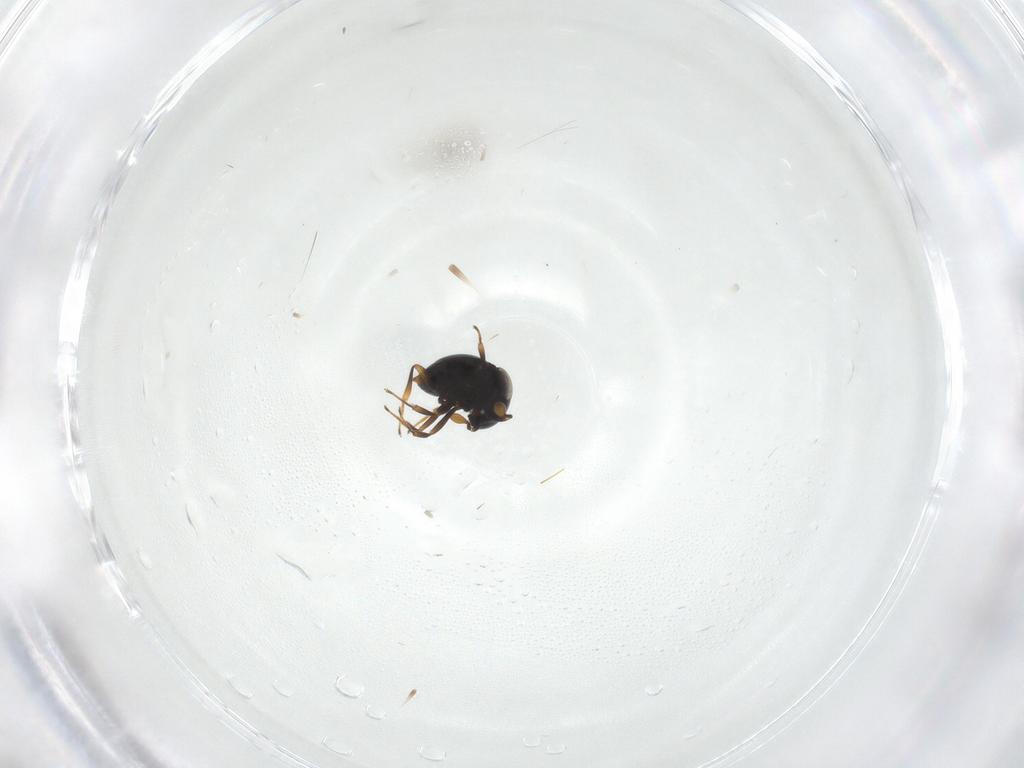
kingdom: Animalia
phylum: Arthropoda
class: Insecta
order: Hymenoptera
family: Scelionidae
